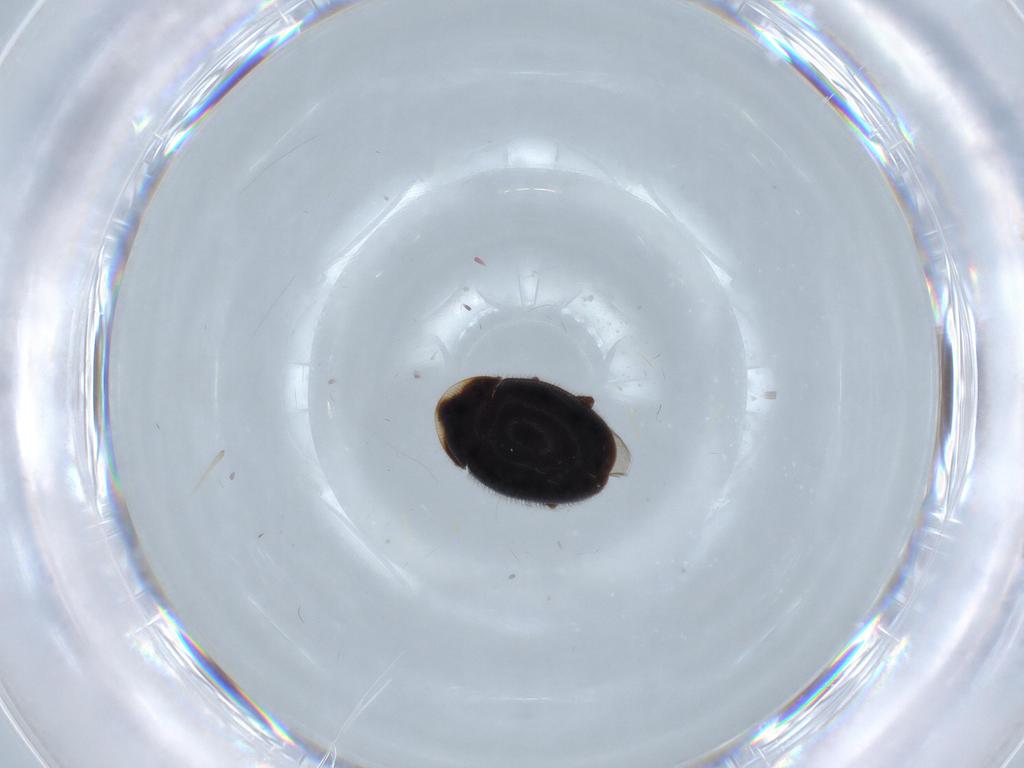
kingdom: Animalia
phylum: Arthropoda
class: Insecta
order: Coleoptera
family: Corylophidae
